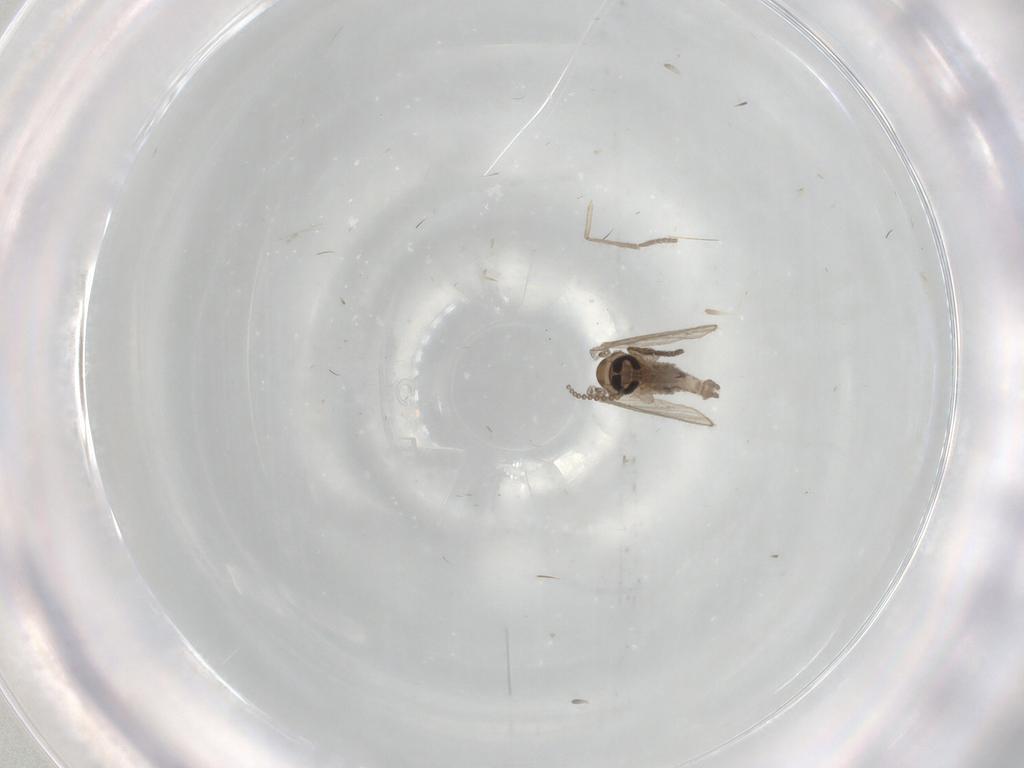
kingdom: Animalia
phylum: Arthropoda
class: Insecta
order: Diptera
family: Psychodidae
